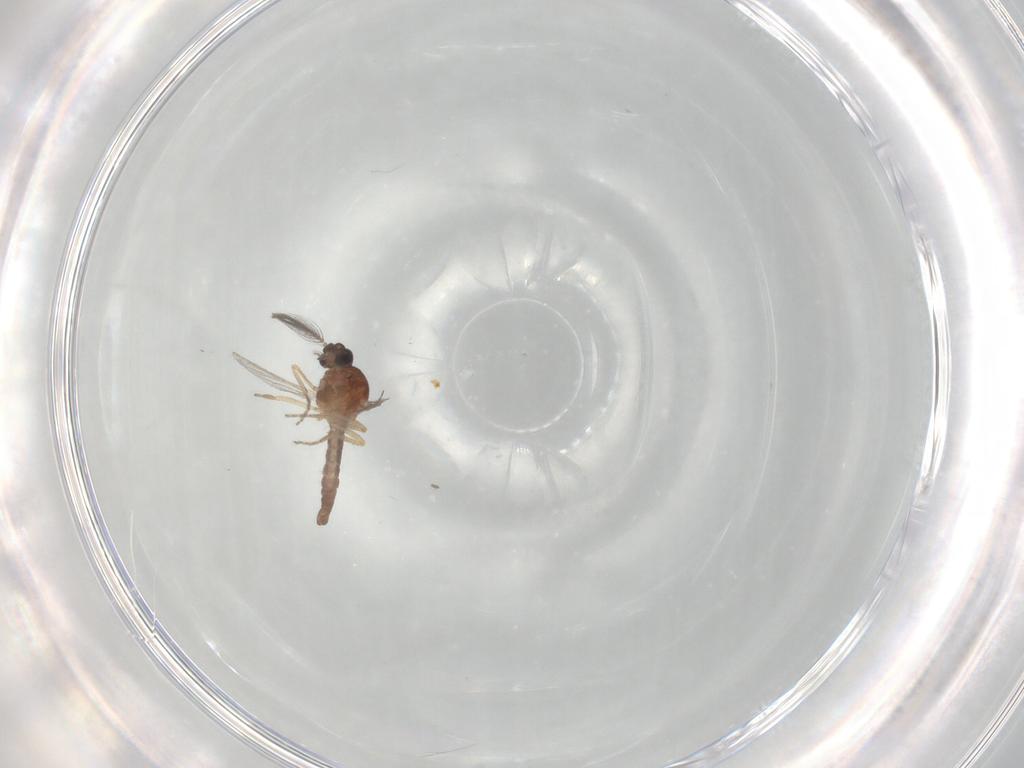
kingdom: Animalia
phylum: Arthropoda
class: Insecta
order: Diptera
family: Ceratopogonidae
